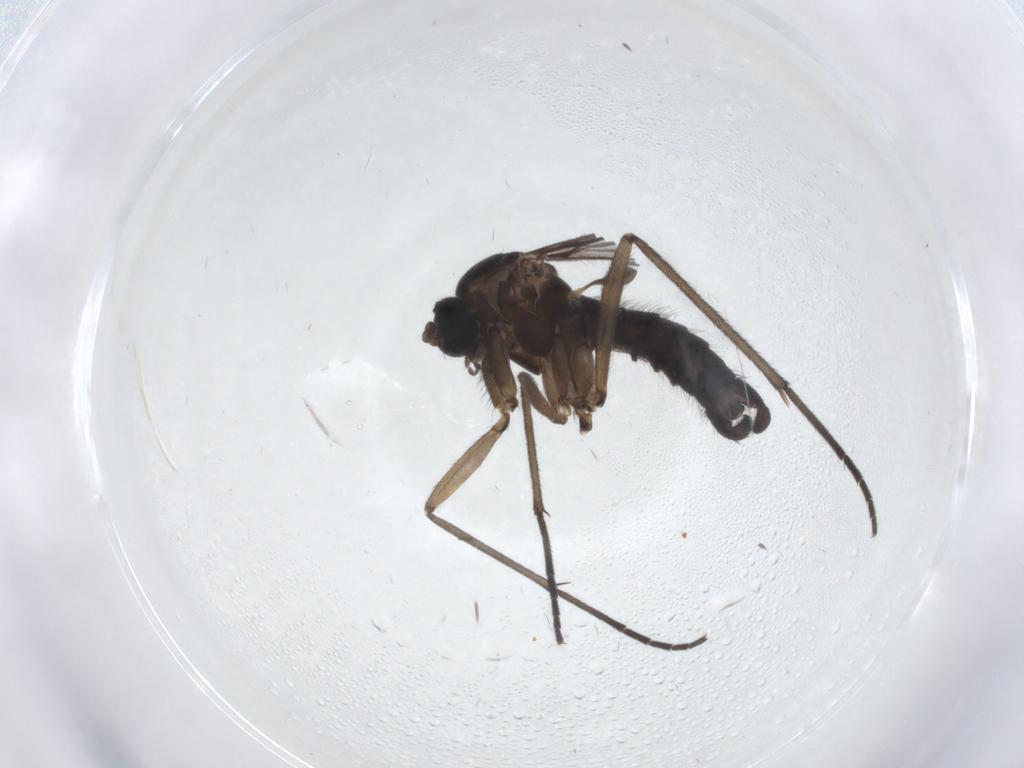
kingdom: Animalia
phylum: Arthropoda
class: Insecta
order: Diptera
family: Sciaridae
